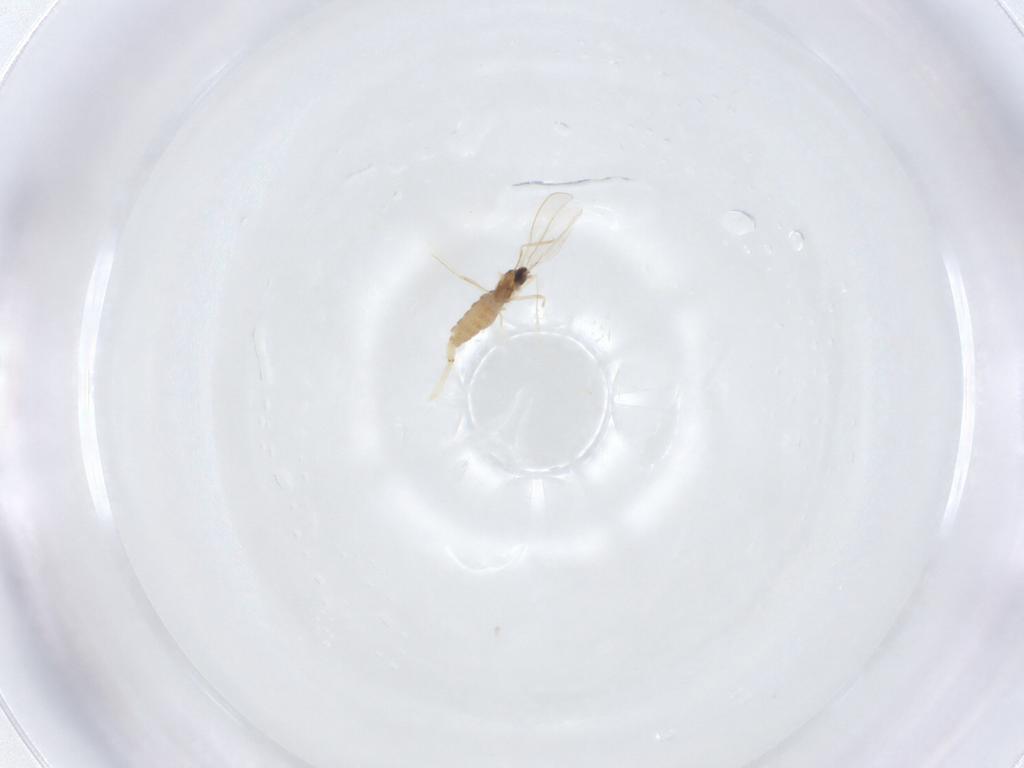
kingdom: Animalia
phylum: Arthropoda
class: Insecta
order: Diptera
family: Cecidomyiidae
